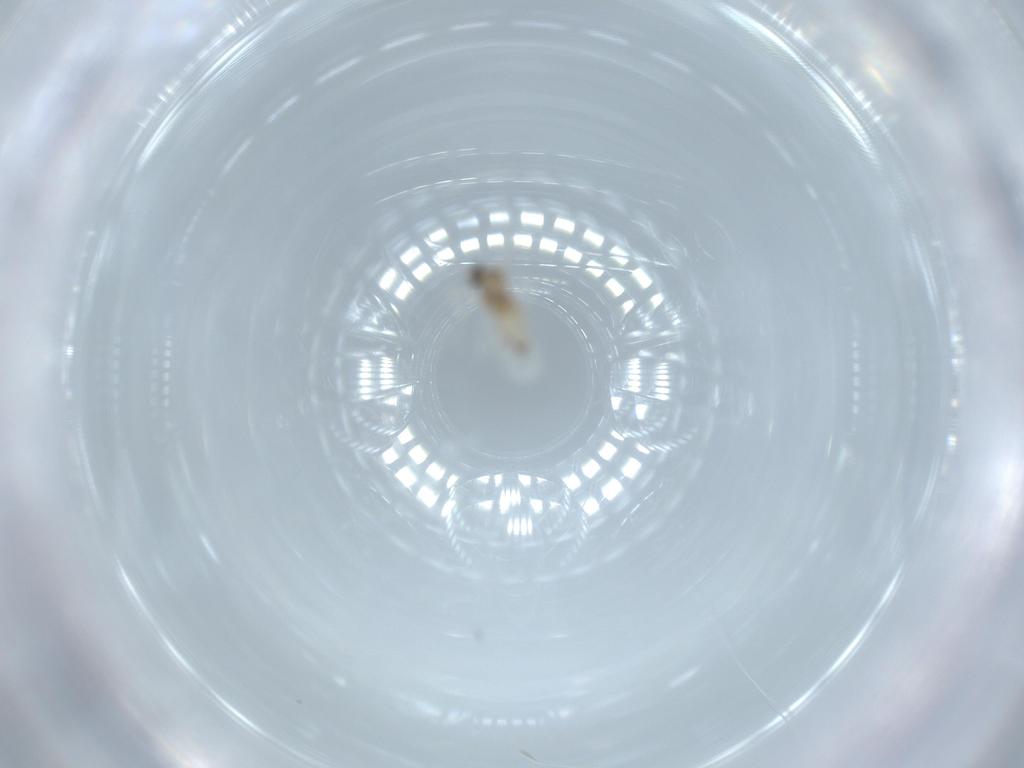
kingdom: Animalia
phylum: Arthropoda
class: Insecta
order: Diptera
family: Cecidomyiidae
